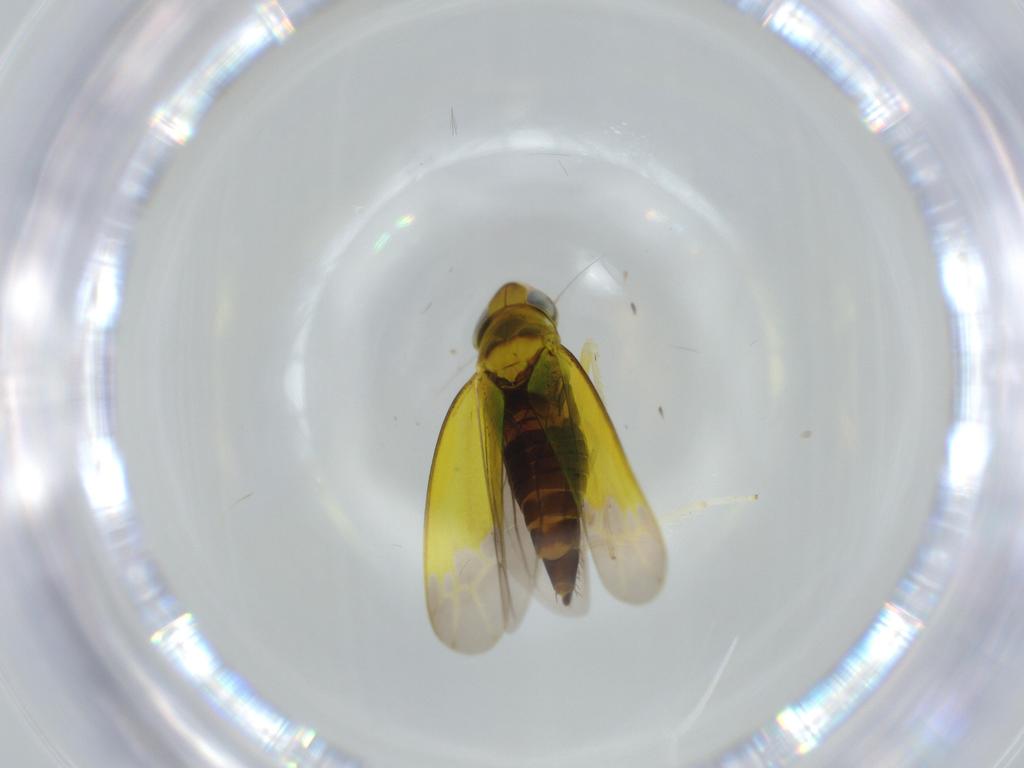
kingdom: Animalia
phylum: Arthropoda
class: Insecta
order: Hemiptera
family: Cicadellidae
